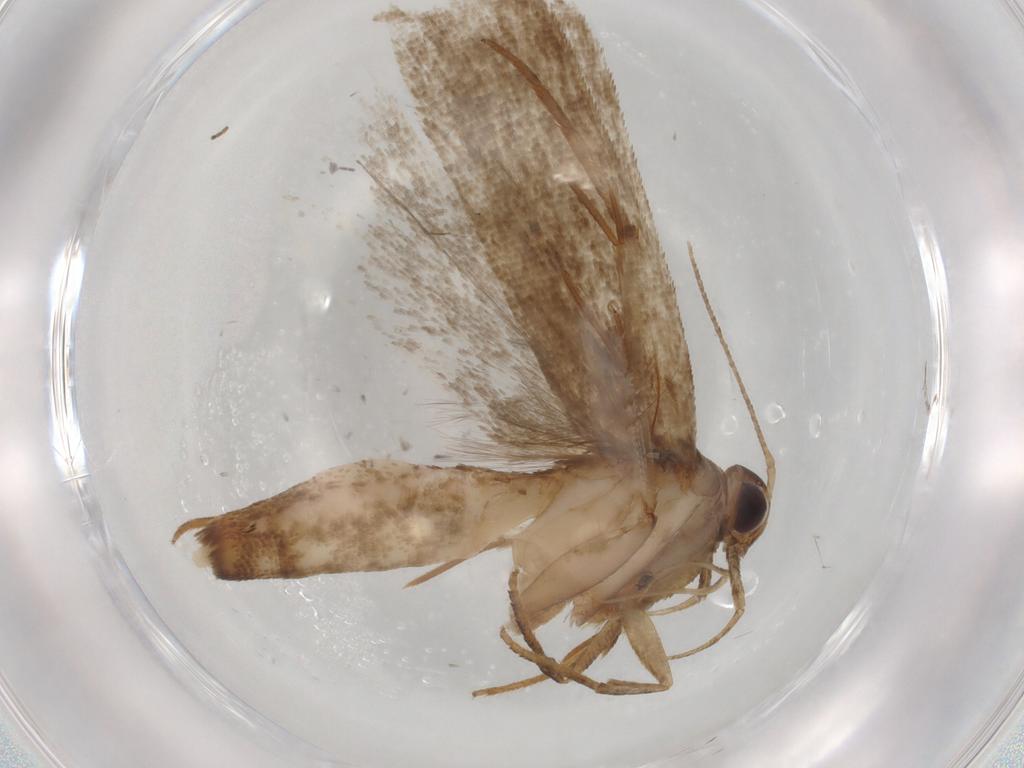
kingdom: Animalia
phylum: Arthropoda
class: Insecta
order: Lepidoptera
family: Gelechiidae
